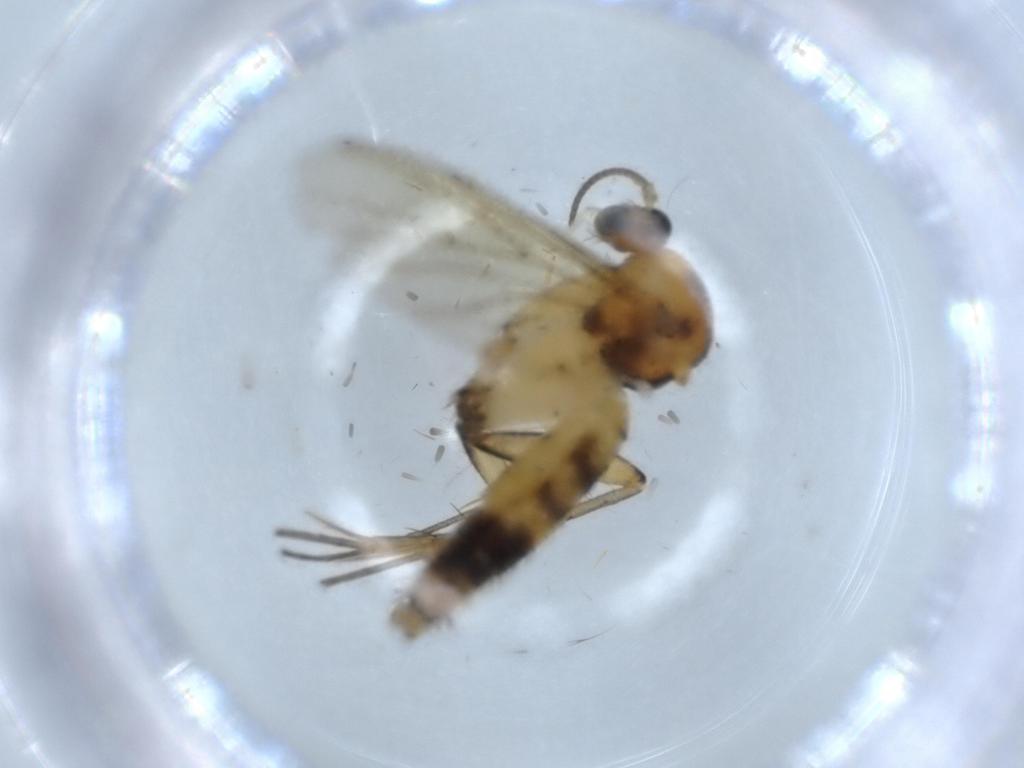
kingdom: Animalia
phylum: Arthropoda
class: Insecta
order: Diptera
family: Cecidomyiidae
